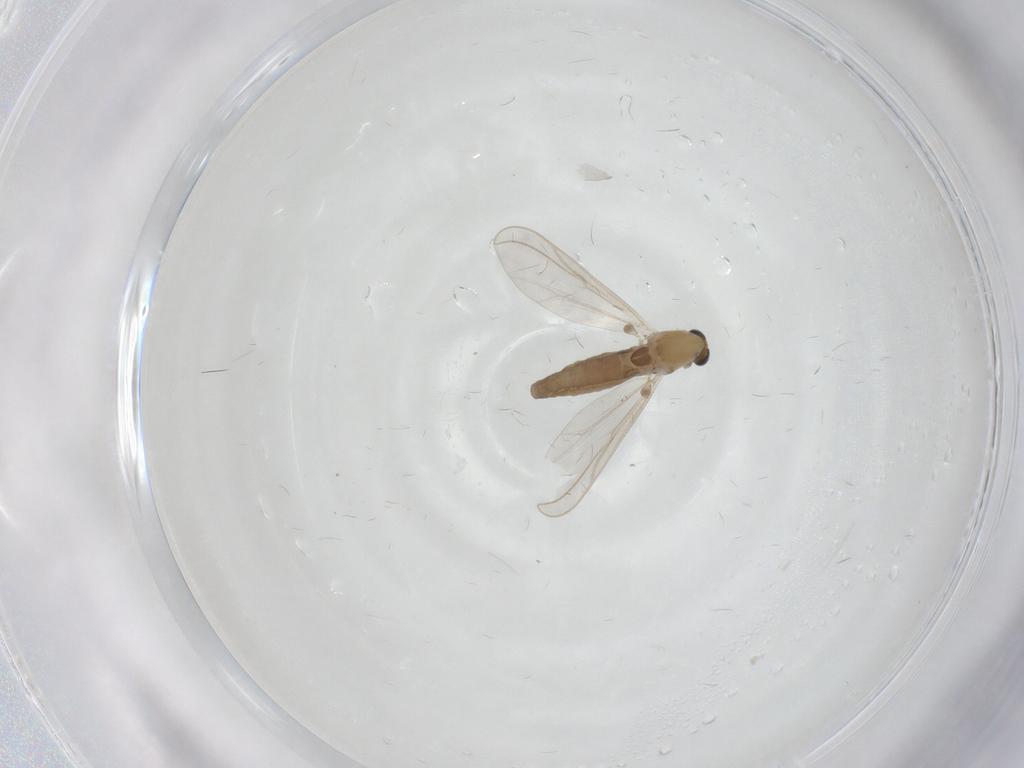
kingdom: Animalia
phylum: Arthropoda
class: Insecta
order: Diptera
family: Chironomidae
